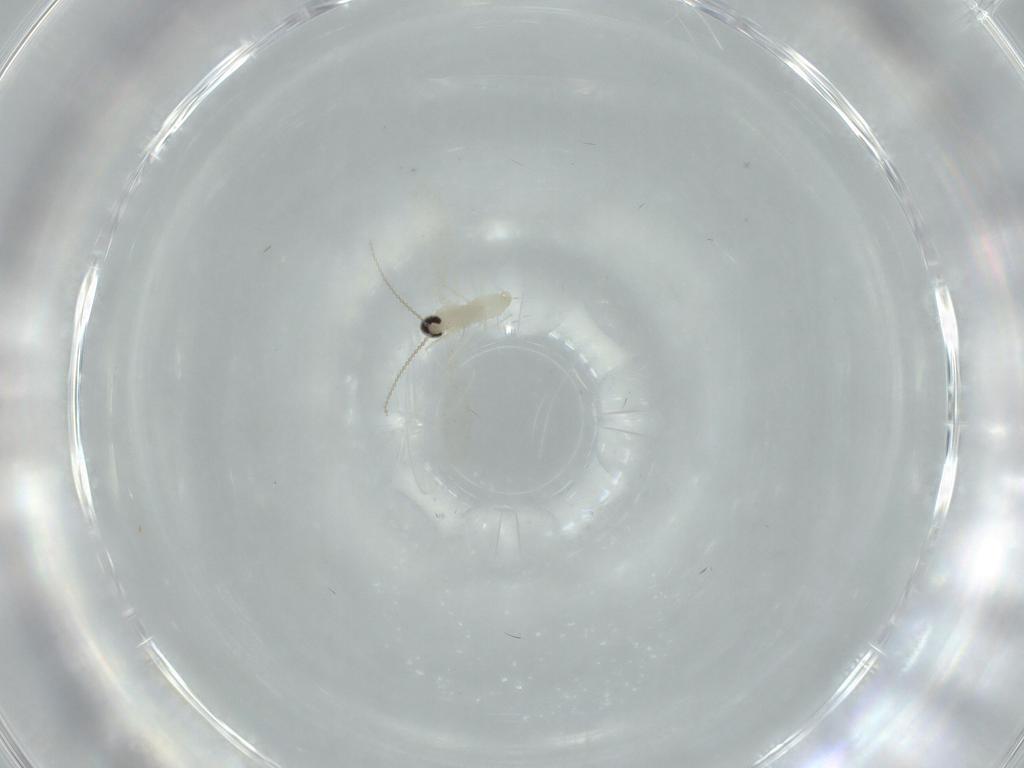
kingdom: Animalia
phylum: Arthropoda
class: Insecta
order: Diptera
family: Cecidomyiidae
